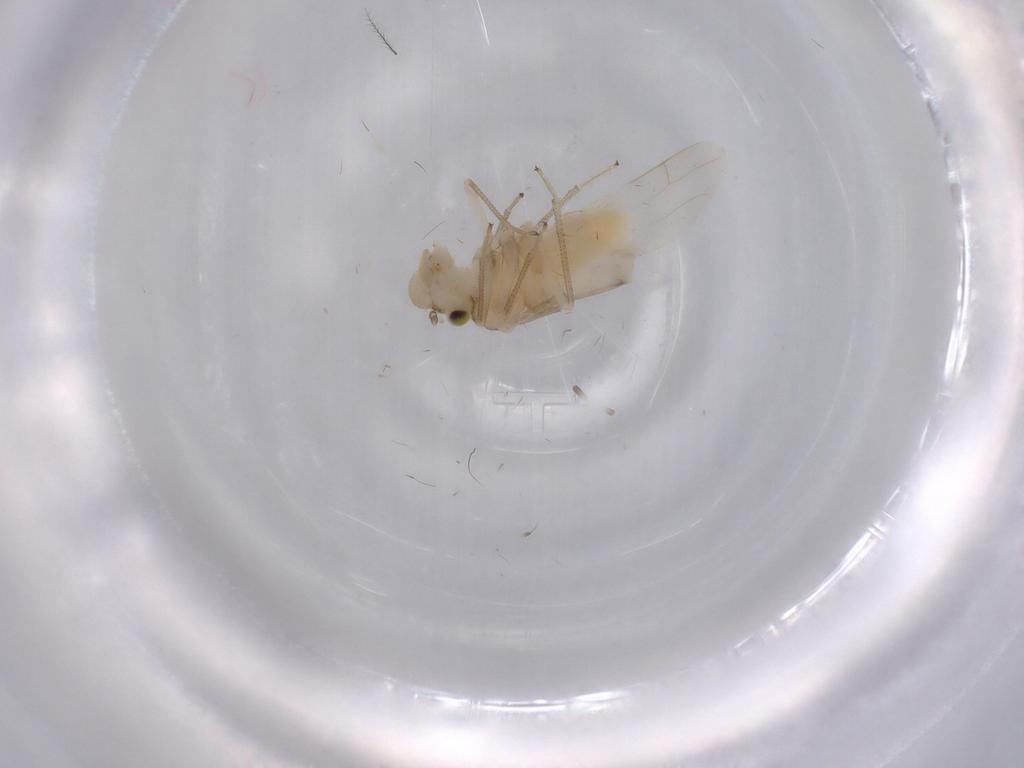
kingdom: Animalia
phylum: Arthropoda
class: Insecta
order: Psocodea
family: Caeciliusidae
